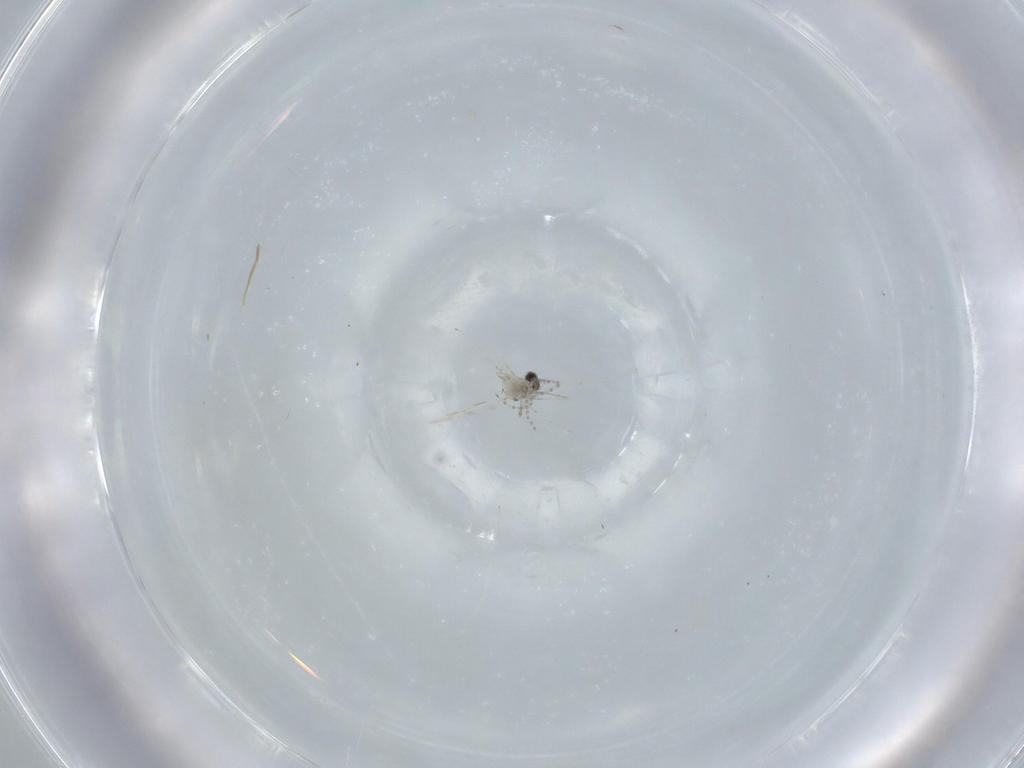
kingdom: Animalia
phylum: Arthropoda
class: Insecta
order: Diptera
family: Cecidomyiidae
